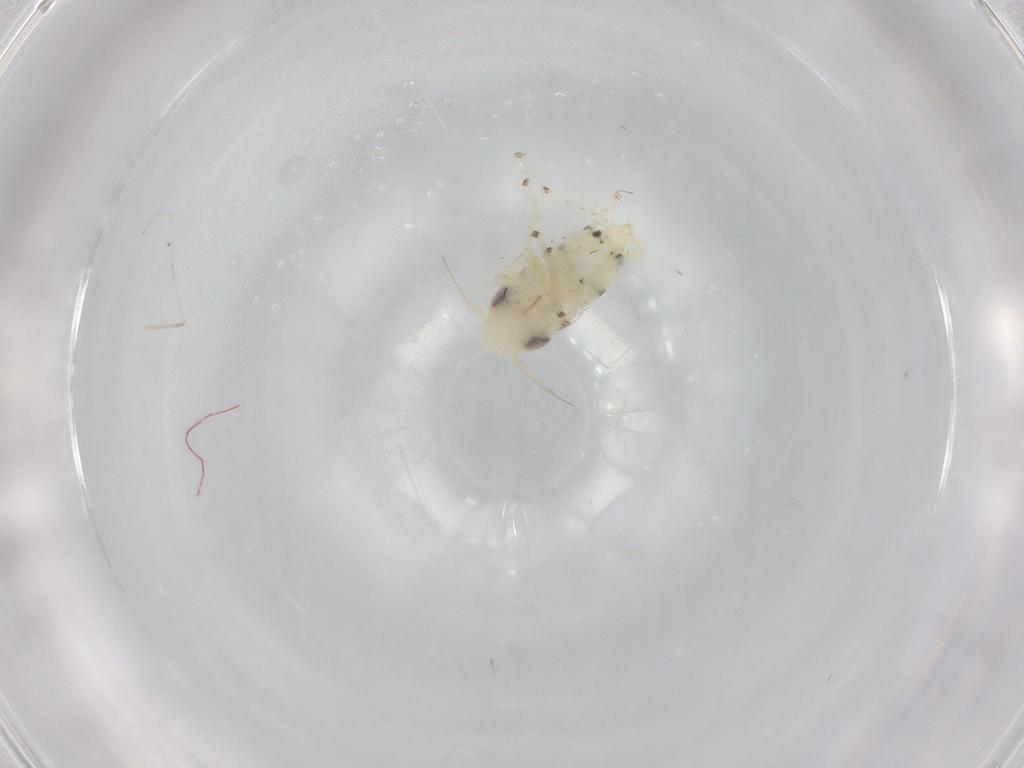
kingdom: Animalia
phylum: Arthropoda
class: Insecta
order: Hemiptera
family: Cicadellidae
